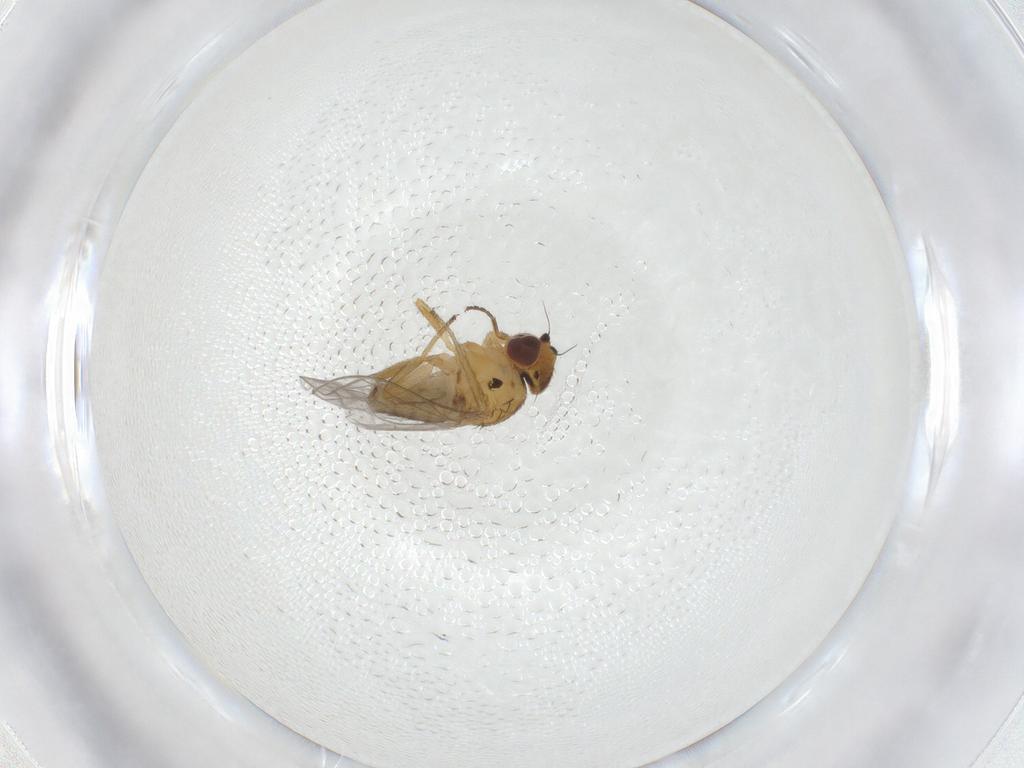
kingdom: Animalia
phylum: Arthropoda
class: Insecta
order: Diptera
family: Chloropidae
